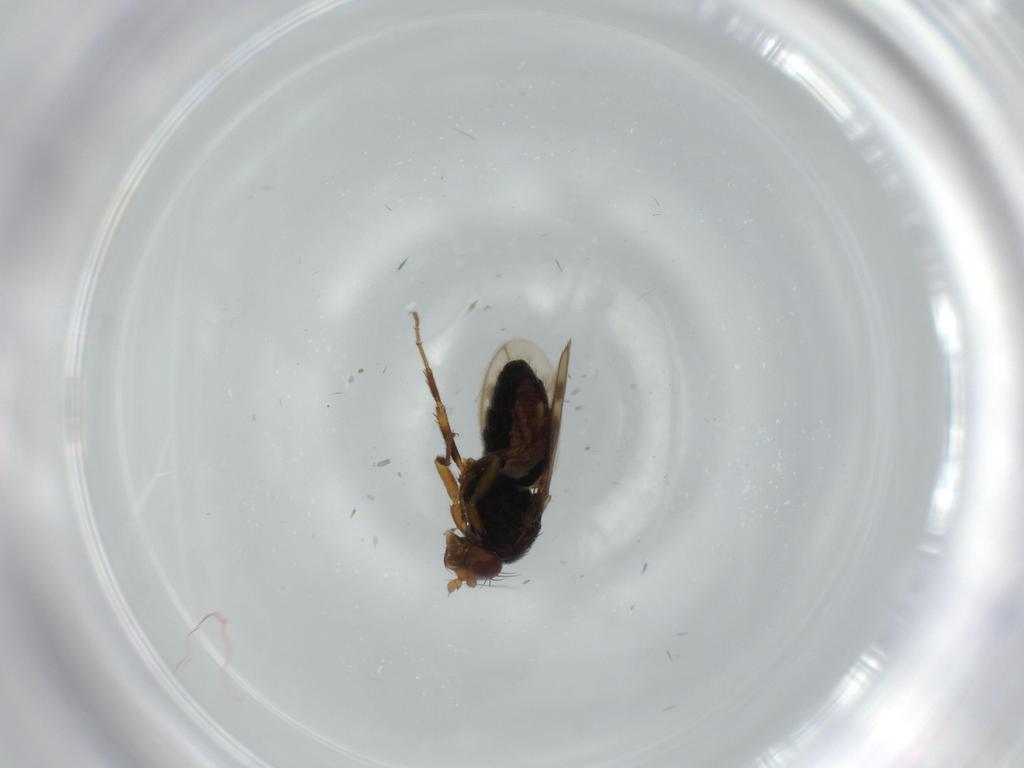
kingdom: Animalia
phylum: Arthropoda
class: Insecta
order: Diptera
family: Sphaeroceridae
